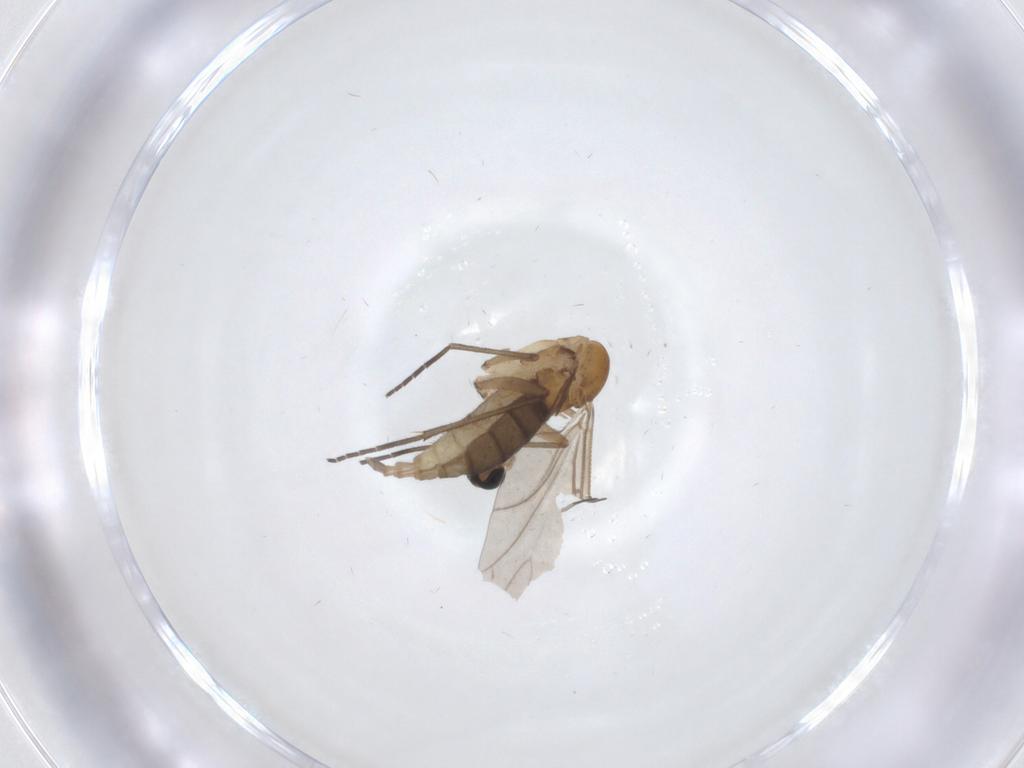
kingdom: Animalia
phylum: Arthropoda
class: Insecta
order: Diptera
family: Sciaridae
